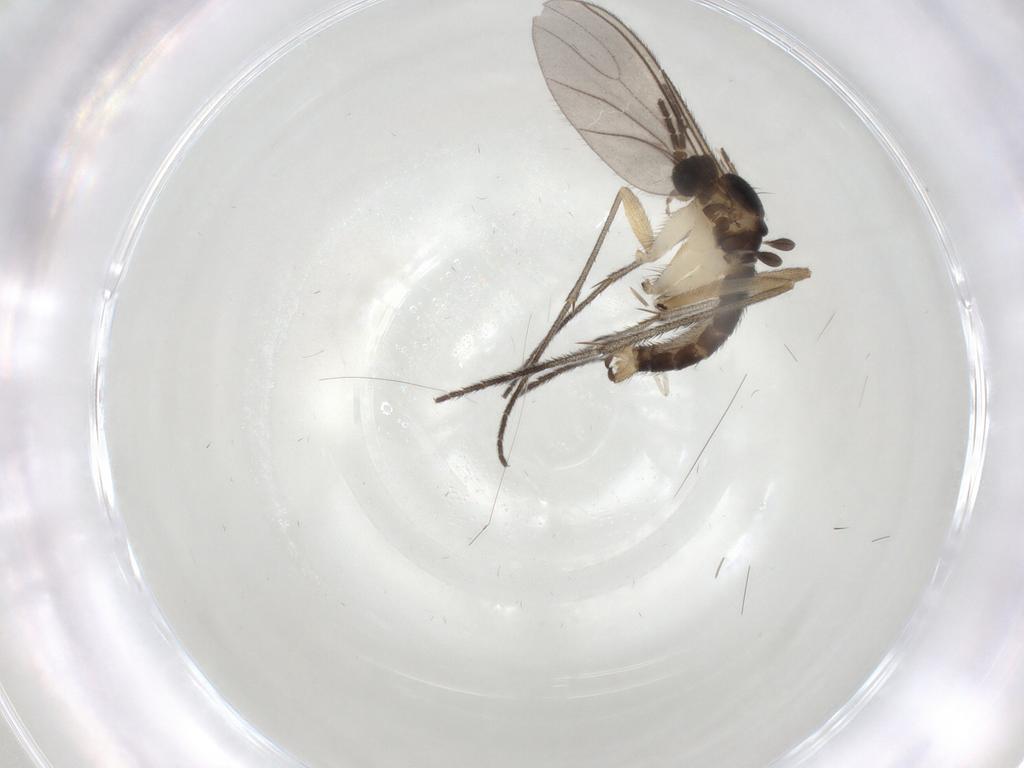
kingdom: Animalia
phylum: Arthropoda
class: Insecta
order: Diptera
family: Sciaridae
